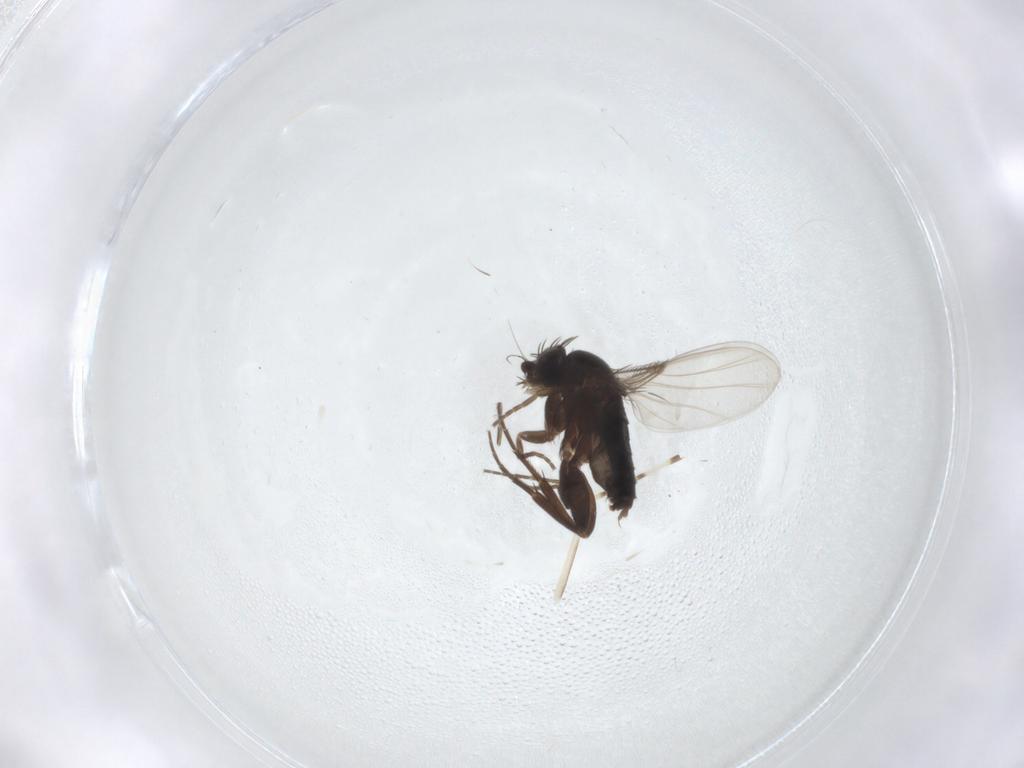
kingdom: Animalia
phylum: Arthropoda
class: Insecta
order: Diptera
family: Phoridae
